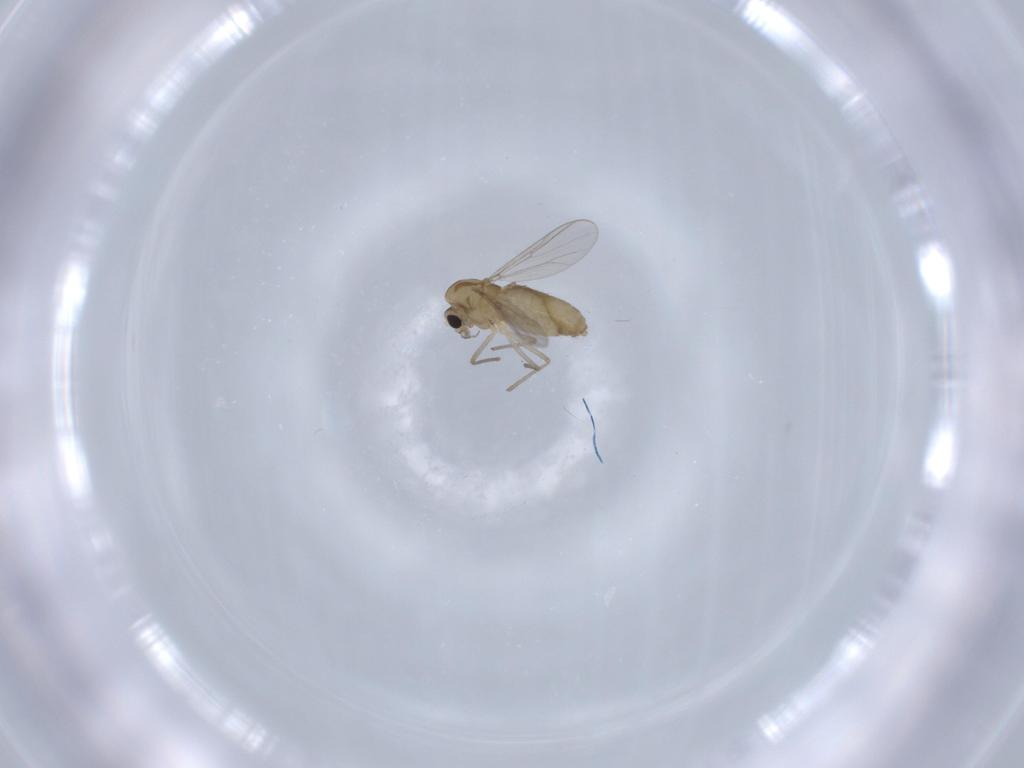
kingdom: Animalia
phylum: Arthropoda
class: Insecta
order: Diptera
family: Chironomidae
